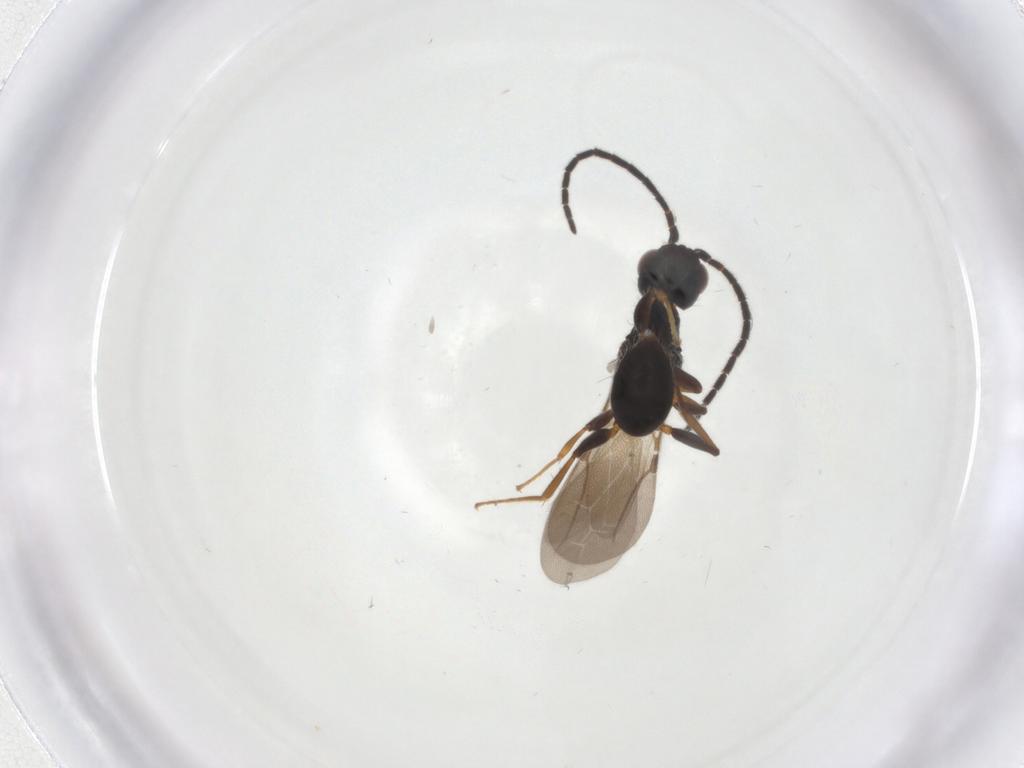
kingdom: Animalia
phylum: Arthropoda
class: Insecta
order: Hymenoptera
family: Bethylidae
